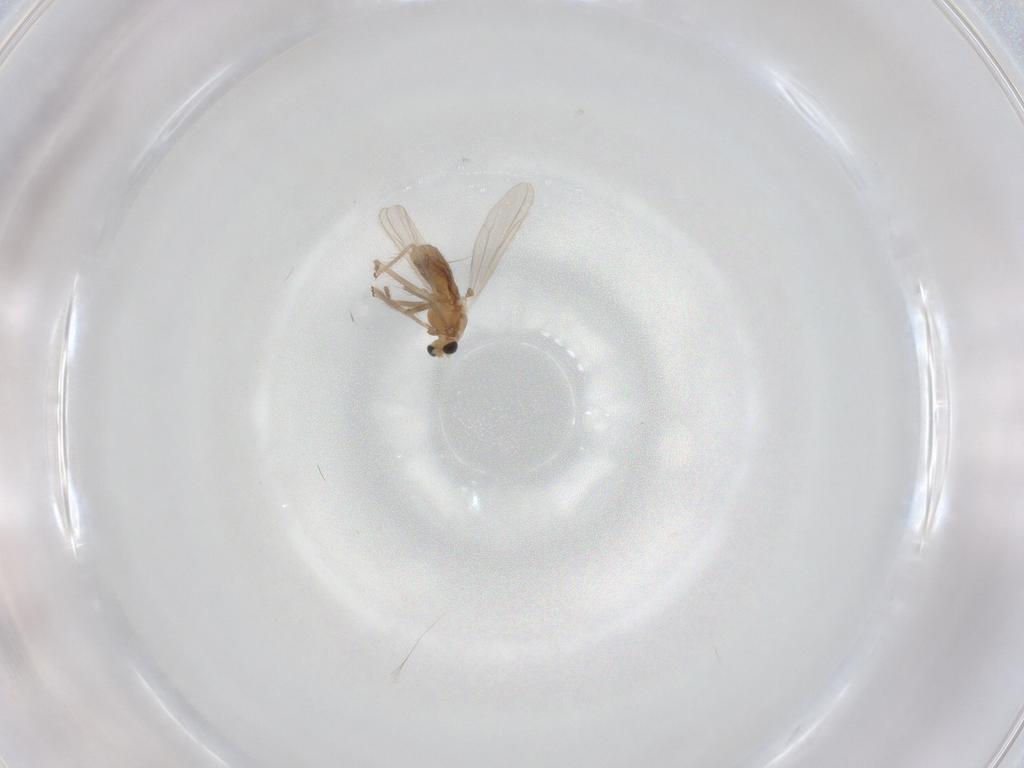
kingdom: Animalia
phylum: Arthropoda
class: Insecta
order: Diptera
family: Chironomidae
